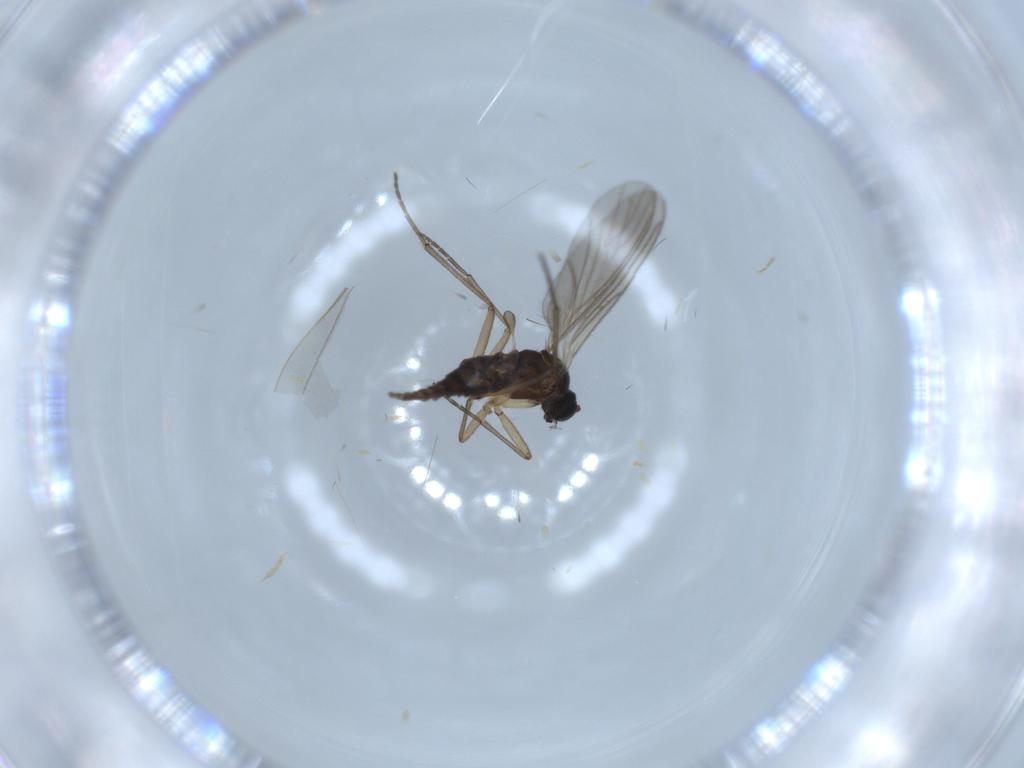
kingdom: Animalia
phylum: Arthropoda
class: Insecta
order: Diptera
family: Sciaridae
